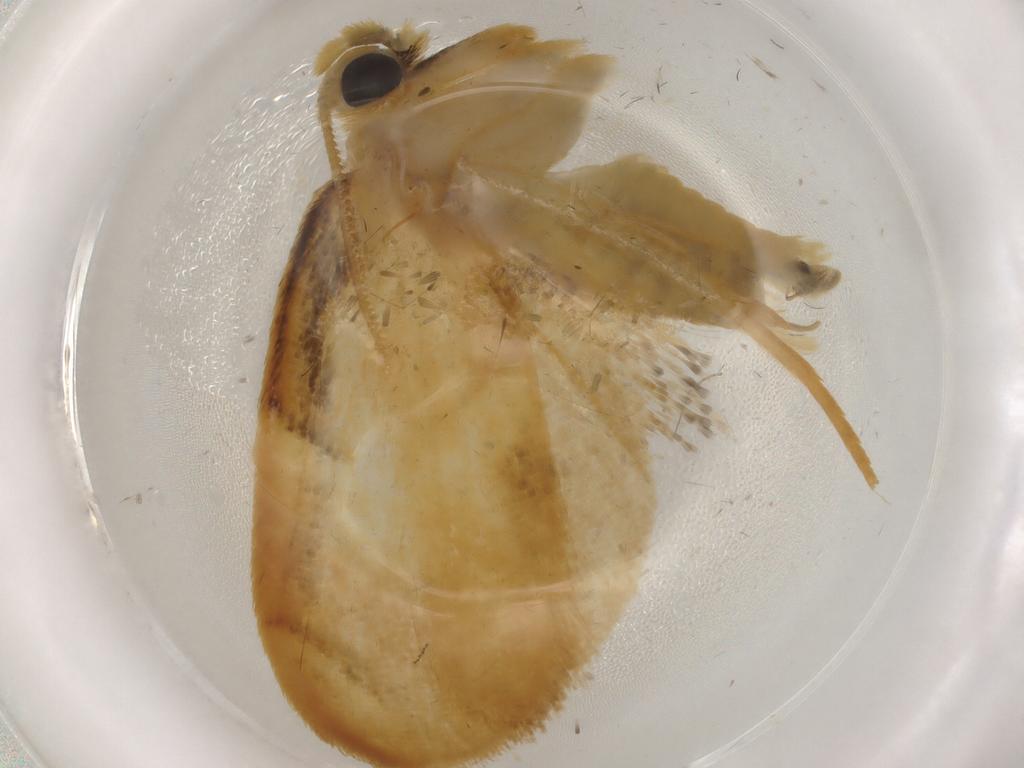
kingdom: Animalia
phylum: Arthropoda
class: Insecta
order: Lepidoptera
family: Psychidae
